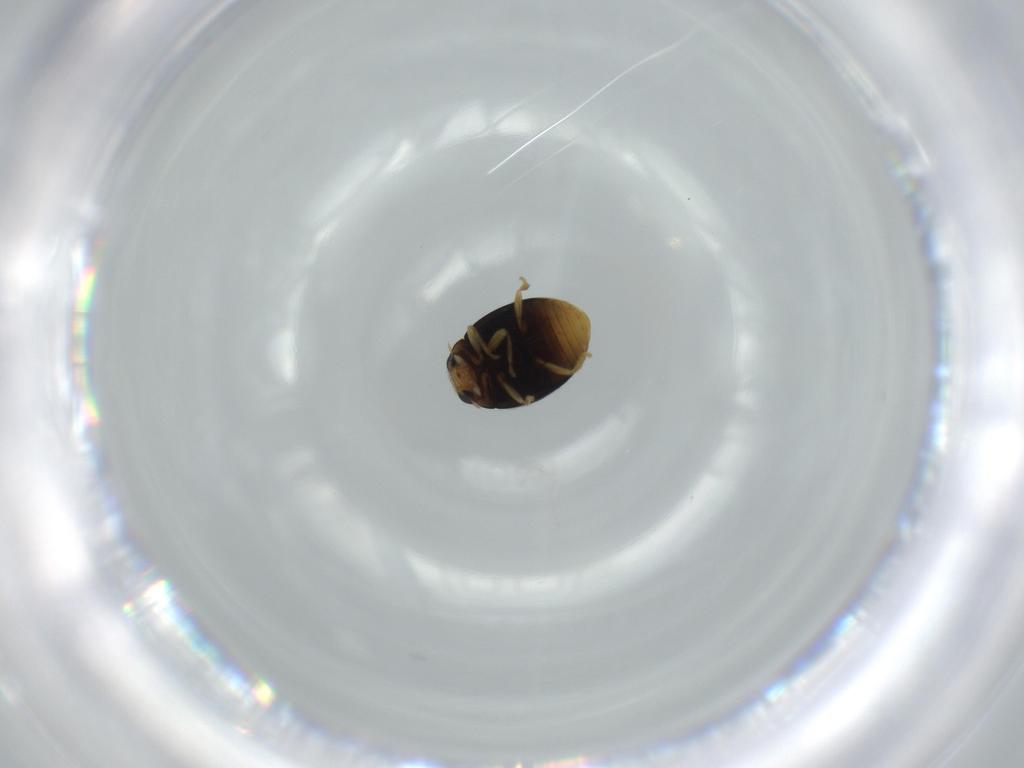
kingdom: Animalia
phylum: Arthropoda
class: Insecta
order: Coleoptera
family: Coccinellidae
